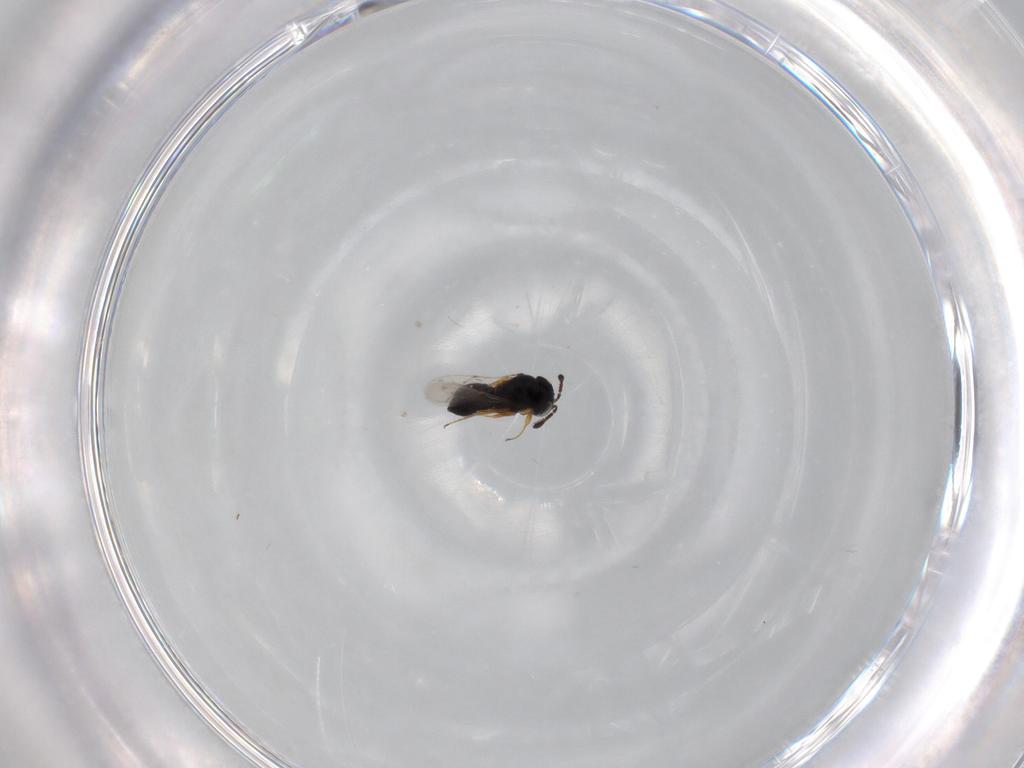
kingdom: Animalia
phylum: Arthropoda
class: Insecta
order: Hymenoptera
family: Scelionidae
